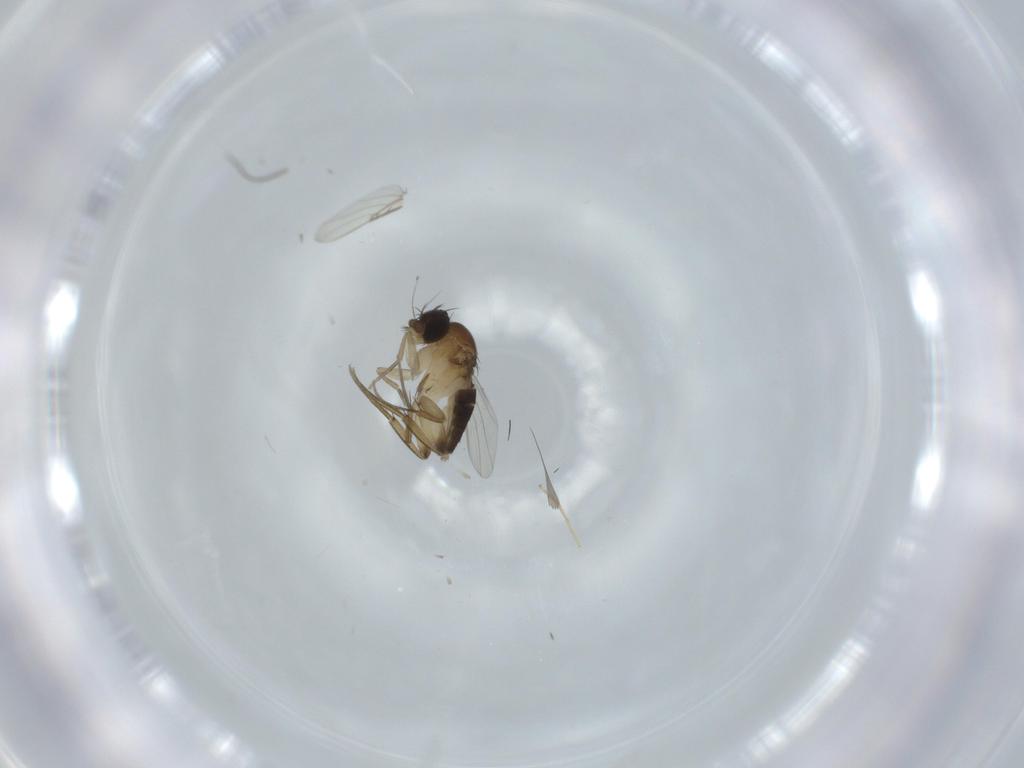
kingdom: Animalia
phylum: Arthropoda
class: Insecta
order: Diptera
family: Phoridae
